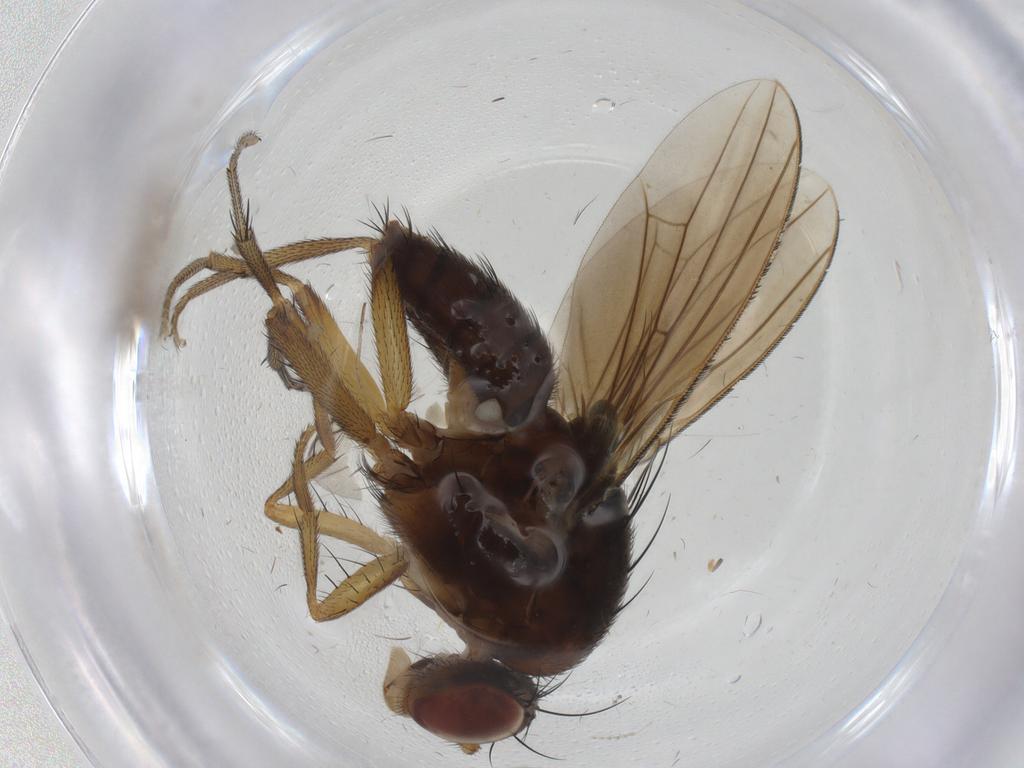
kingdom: Animalia
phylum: Arthropoda
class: Insecta
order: Diptera
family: Cecidomyiidae
